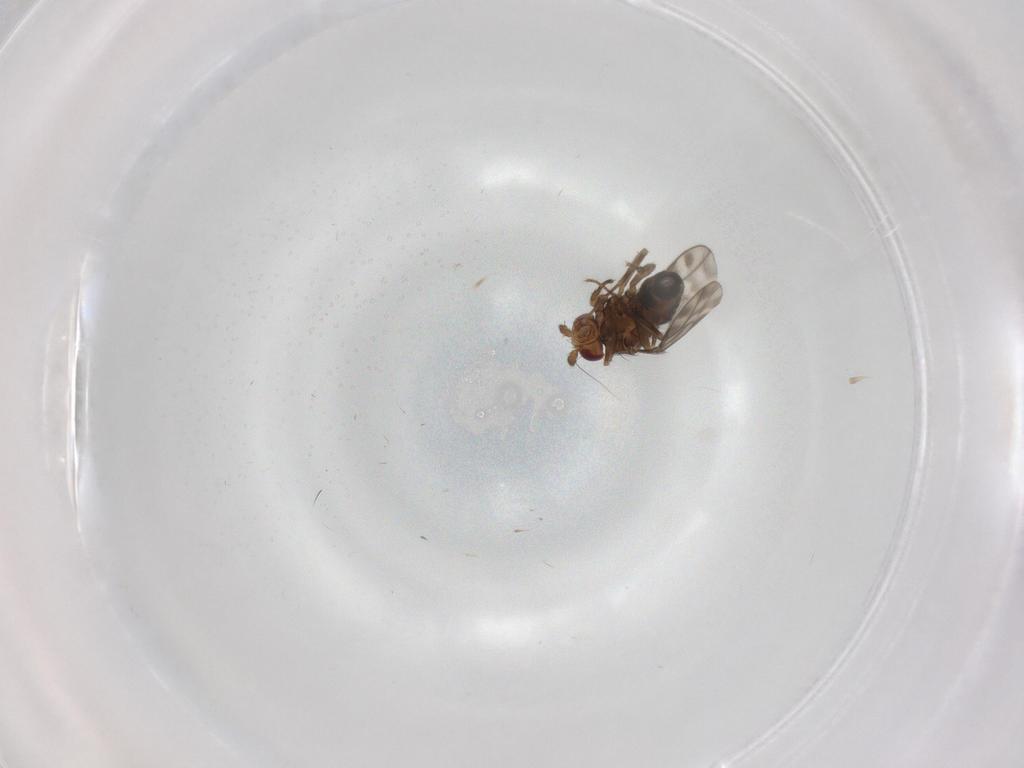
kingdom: Animalia
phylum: Arthropoda
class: Insecta
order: Diptera
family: Sphaeroceridae
